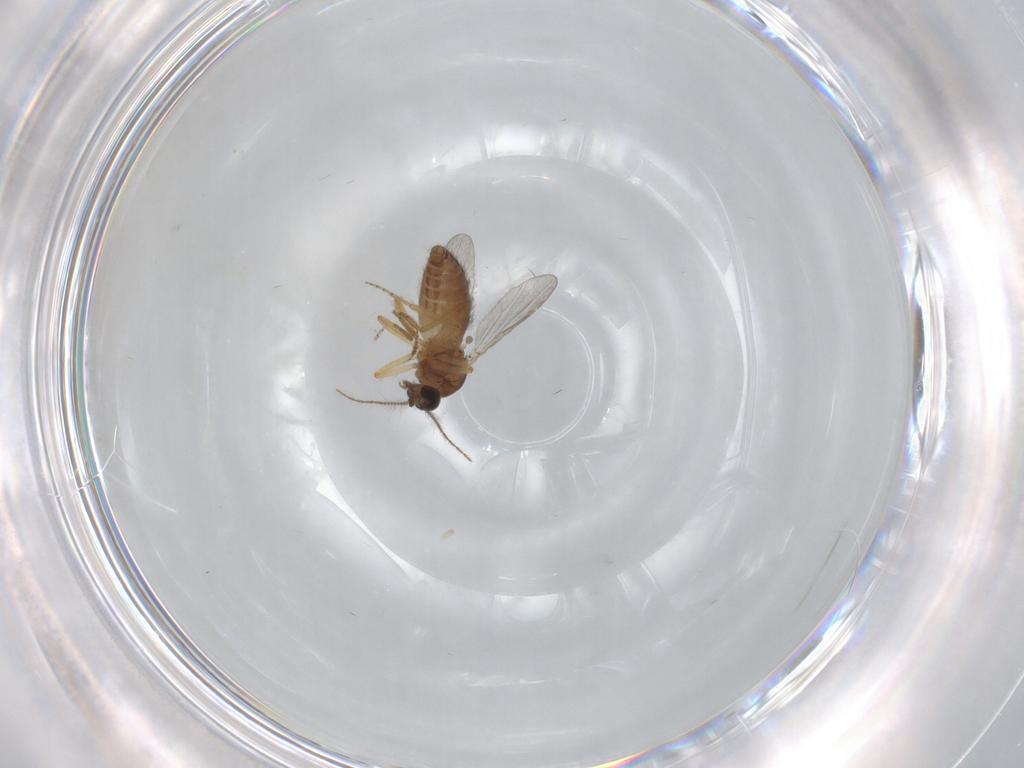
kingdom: Animalia
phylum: Arthropoda
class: Insecta
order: Diptera
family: Ceratopogonidae
